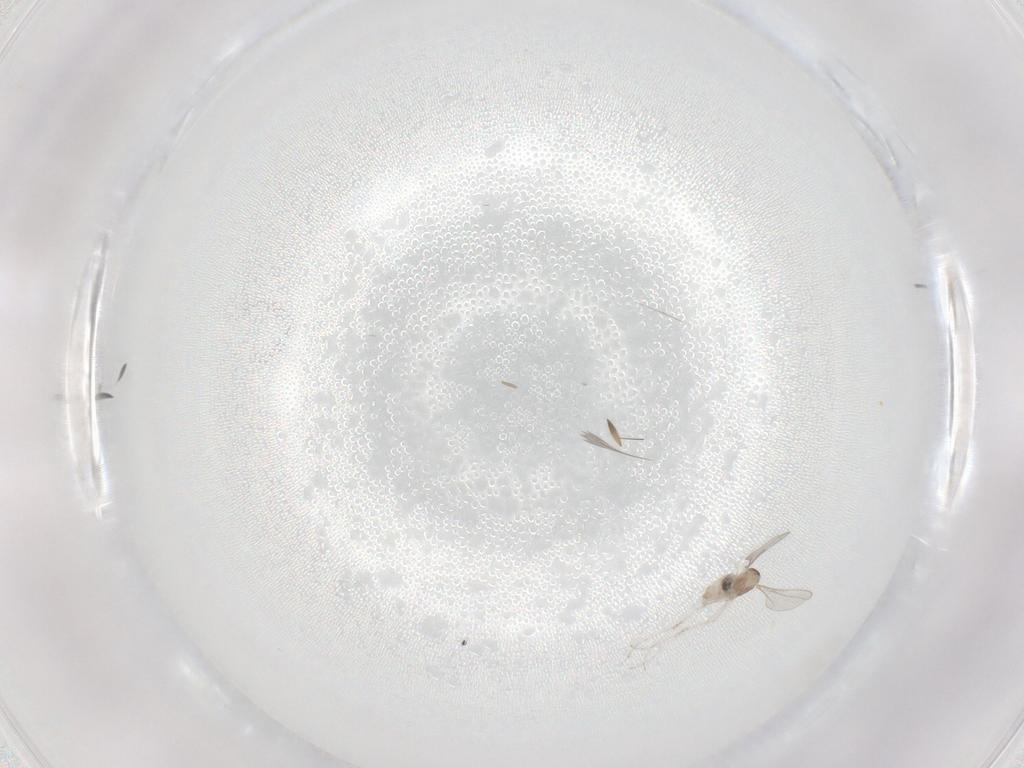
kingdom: Animalia
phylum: Arthropoda
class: Insecta
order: Diptera
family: Cecidomyiidae
